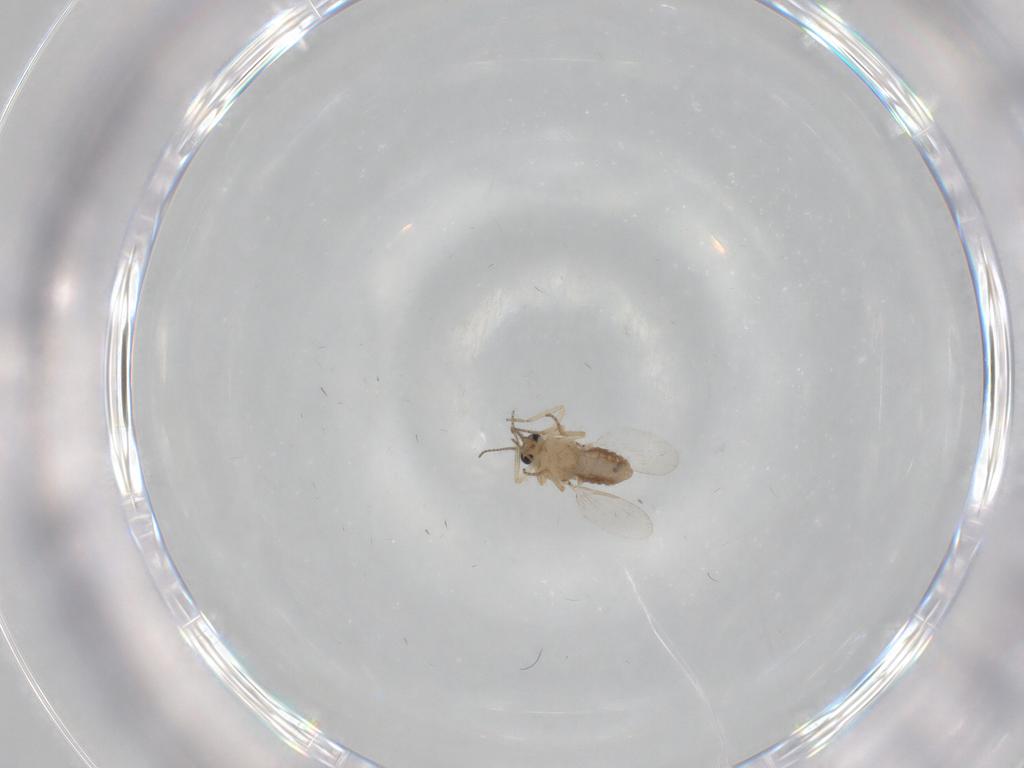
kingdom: Animalia
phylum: Arthropoda
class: Insecta
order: Diptera
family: Ceratopogonidae
